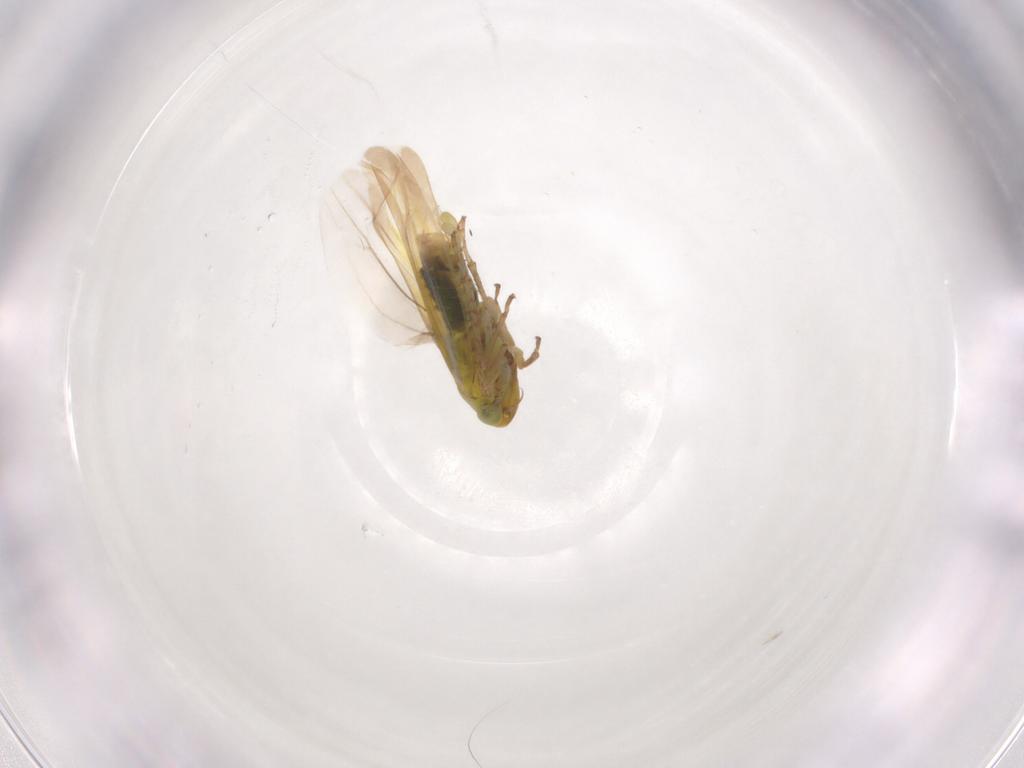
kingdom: Animalia
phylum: Arthropoda
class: Insecta
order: Hemiptera
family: Cicadellidae
